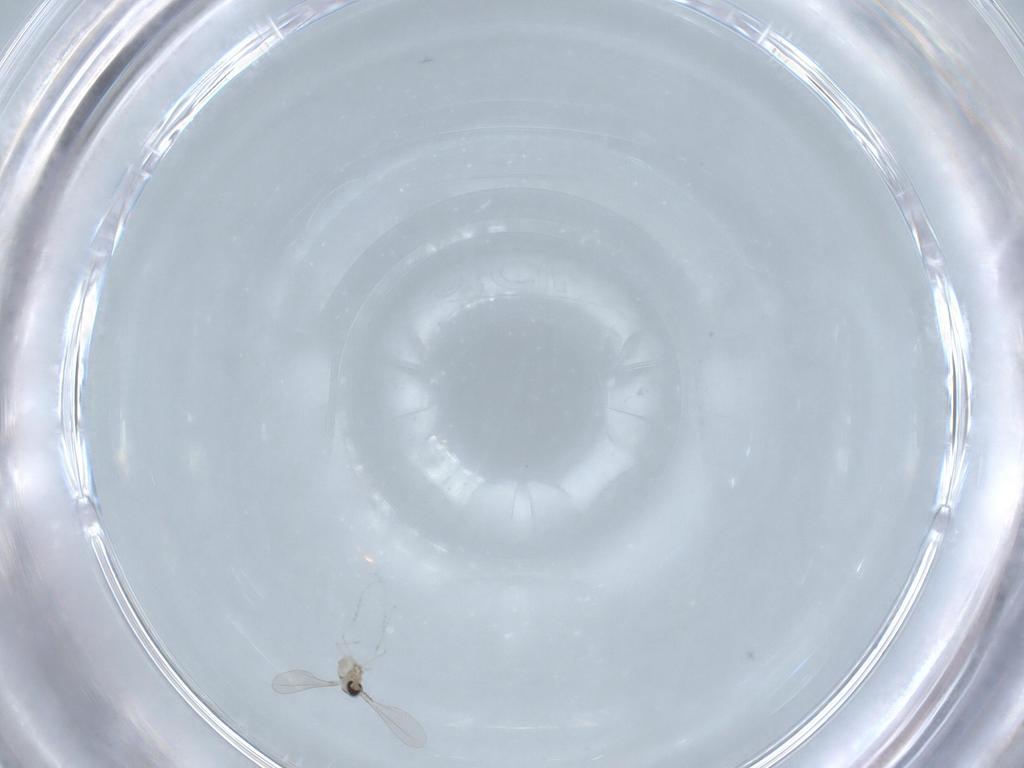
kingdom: Animalia
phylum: Arthropoda
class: Insecta
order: Diptera
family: Cecidomyiidae
